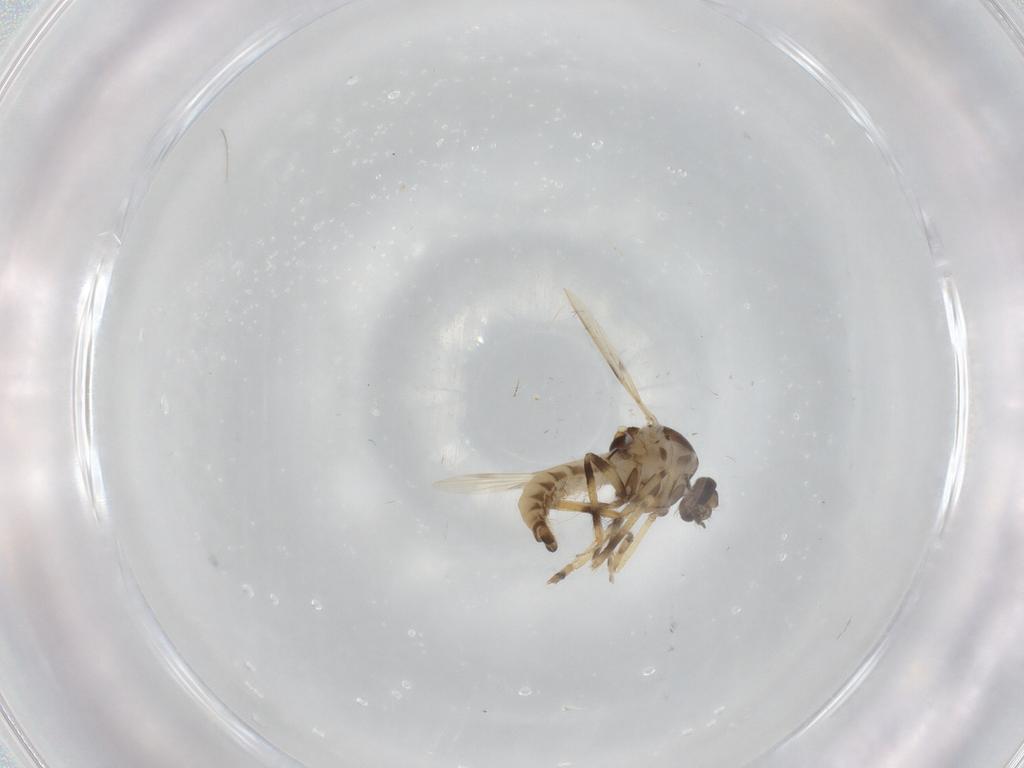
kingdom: Animalia
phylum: Arthropoda
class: Insecta
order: Diptera
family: Ceratopogonidae
